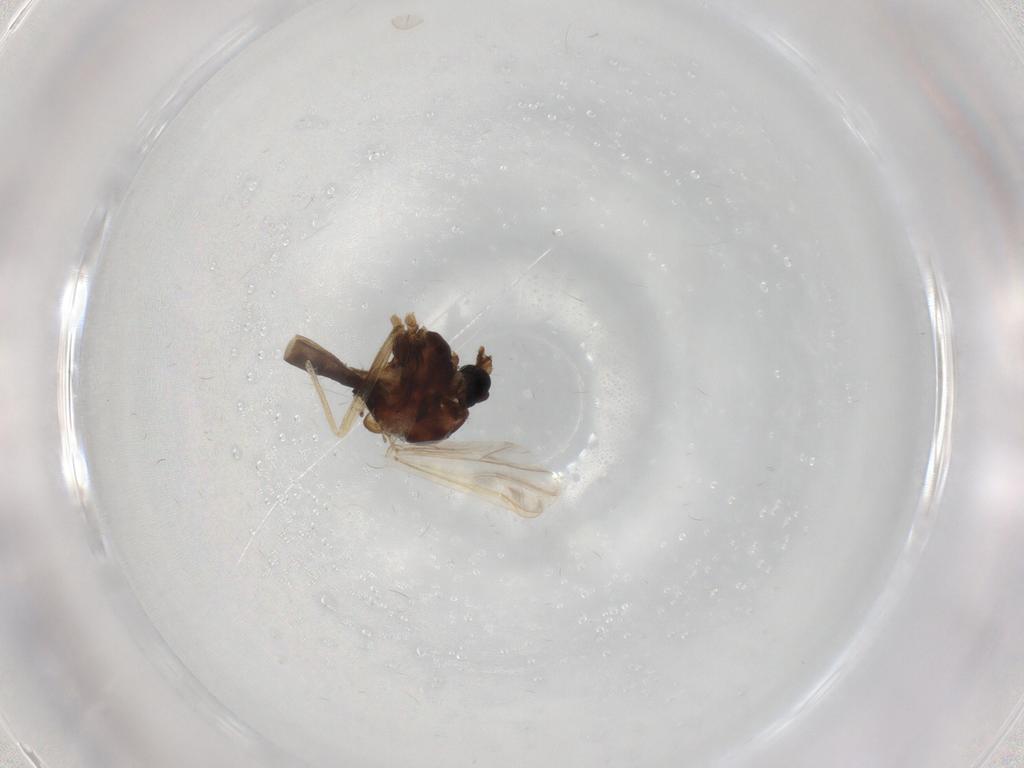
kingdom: Animalia
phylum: Arthropoda
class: Insecta
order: Diptera
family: Chironomidae
